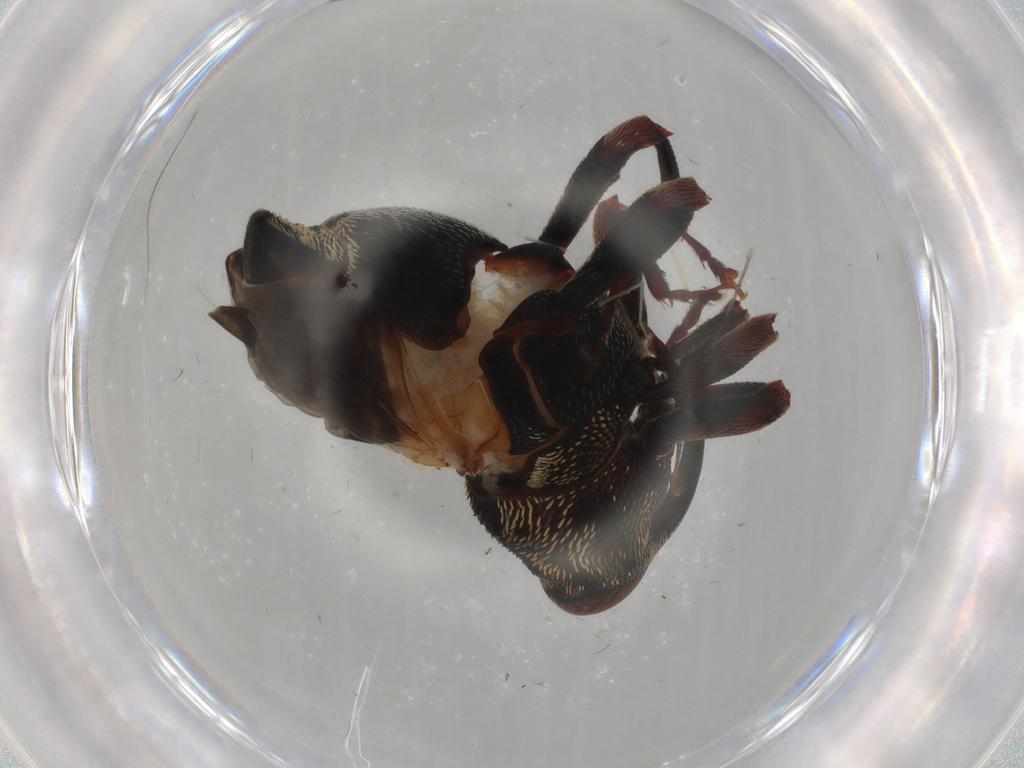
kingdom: Animalia
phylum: Arthropoda
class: Insecta
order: Coleoptera
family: Curculionidae
